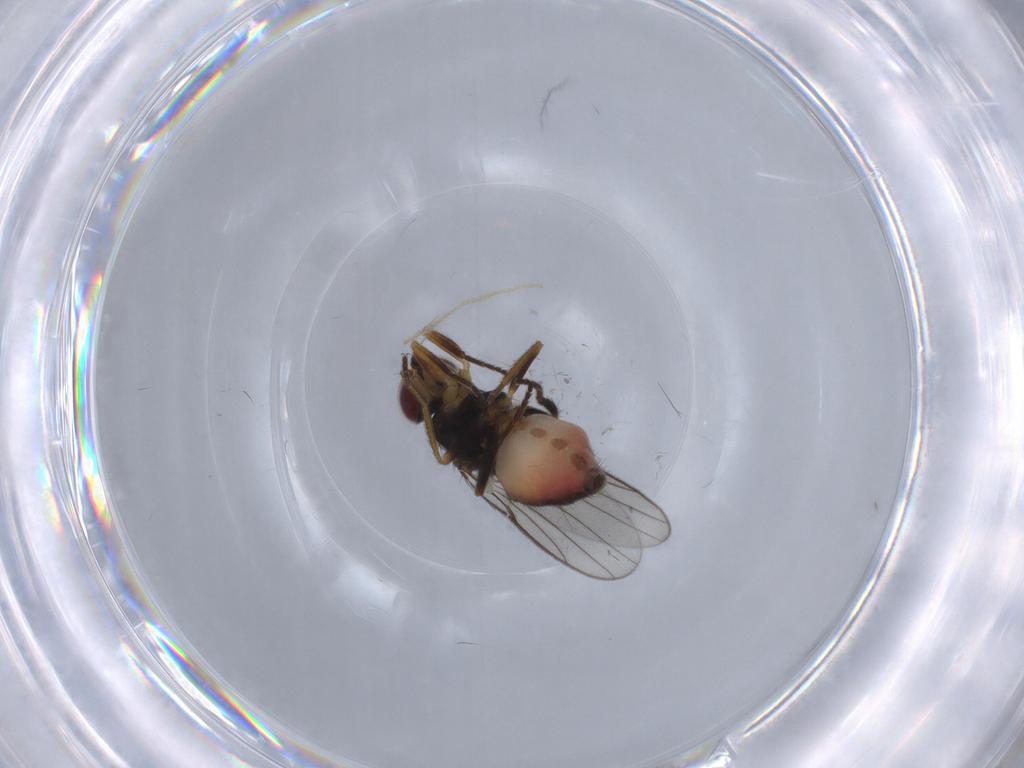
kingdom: Animalia
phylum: Arthropoda
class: Insecta
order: Diptera
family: Chloropidae
